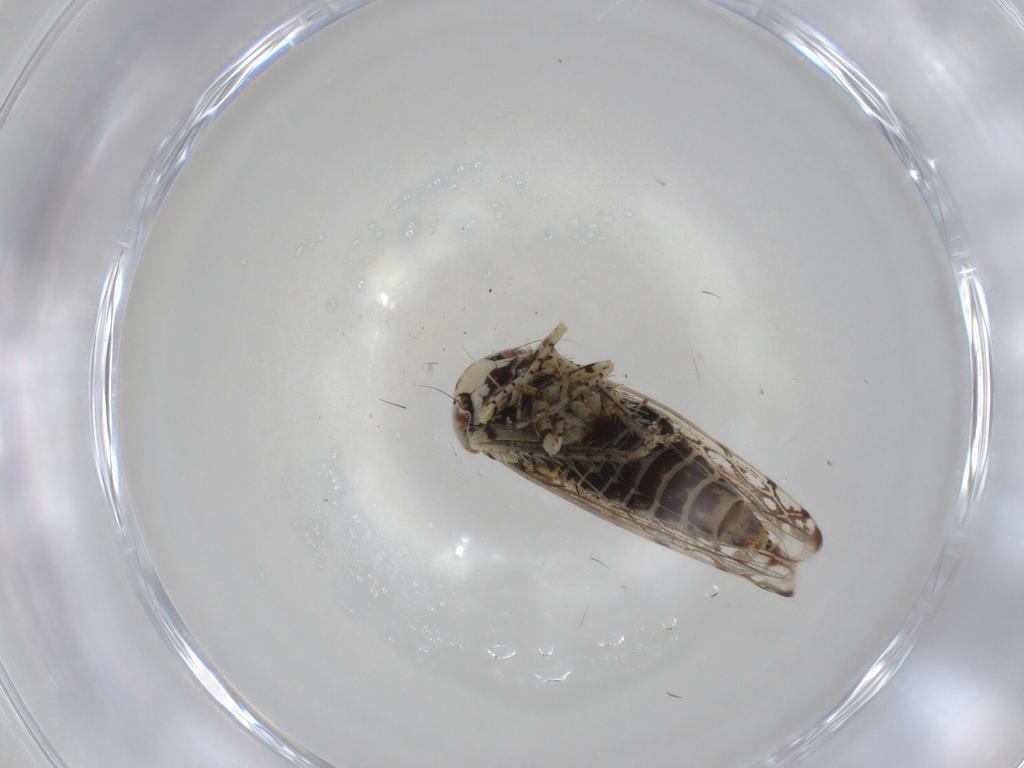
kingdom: Animalia
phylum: Arthropoda
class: Insecta
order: Hemiptera
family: Cicadellidae
